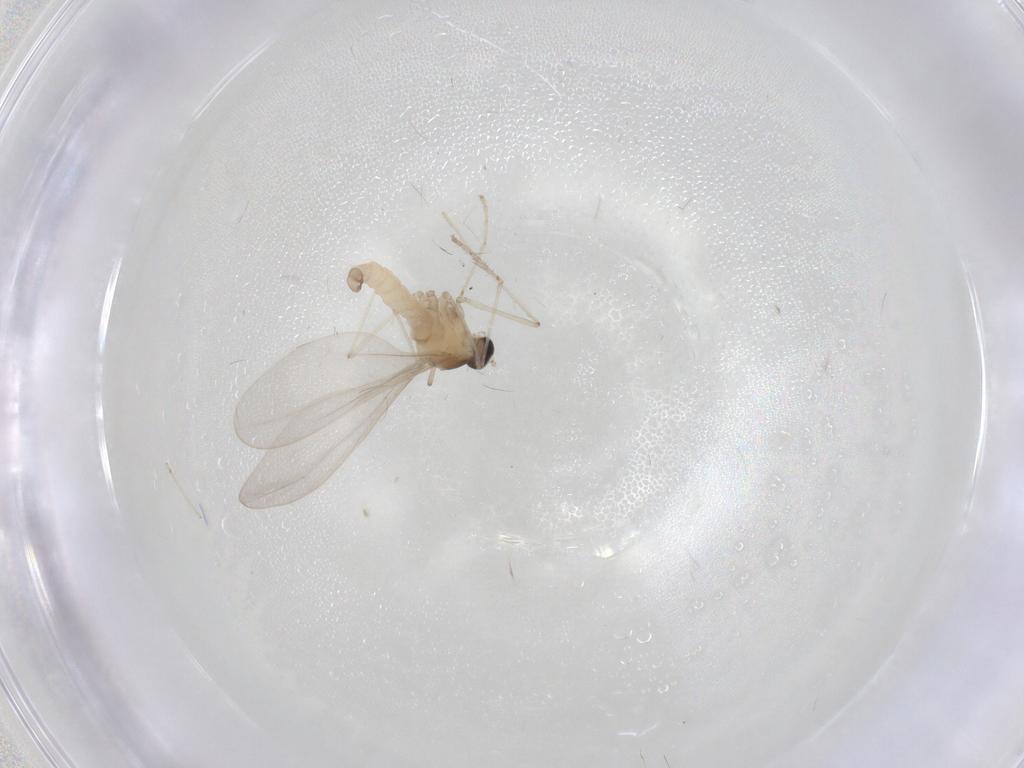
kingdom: Animalia
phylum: Arthropoda
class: Insecta
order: Diptera
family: Cecidomyiidae
